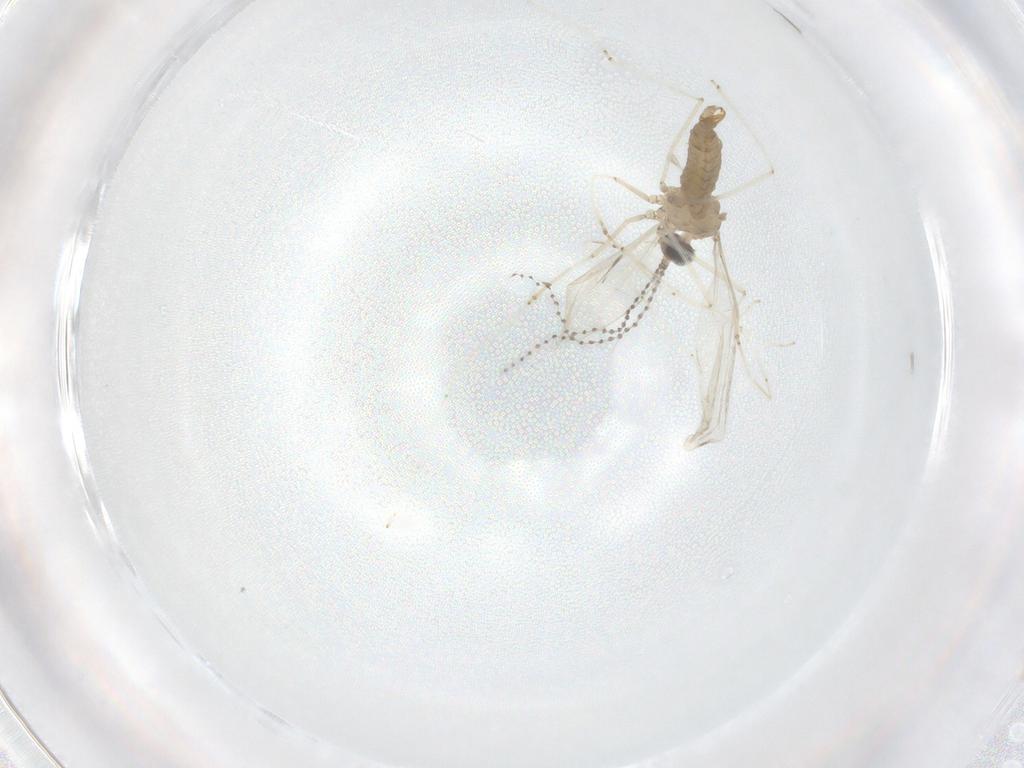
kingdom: Animalia
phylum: Arthropoda
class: Insecta
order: Diptera
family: Cecidomyiidae
